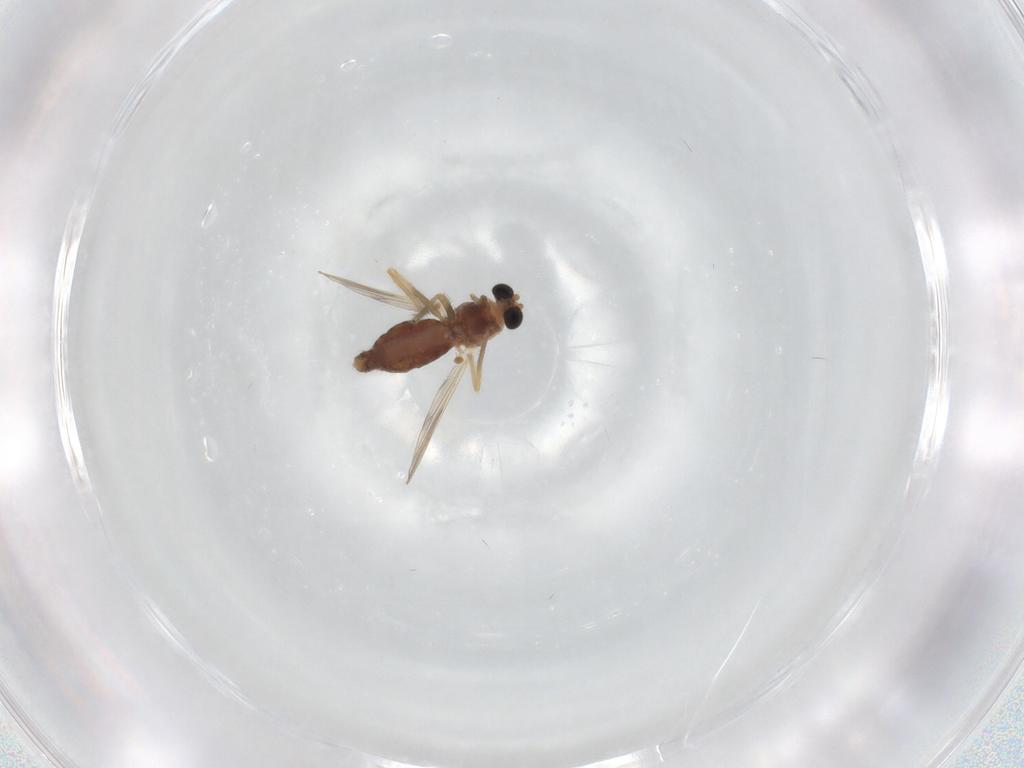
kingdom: Animalia
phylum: Arthropoda
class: Insecta
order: Diptera
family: Chironomidae
